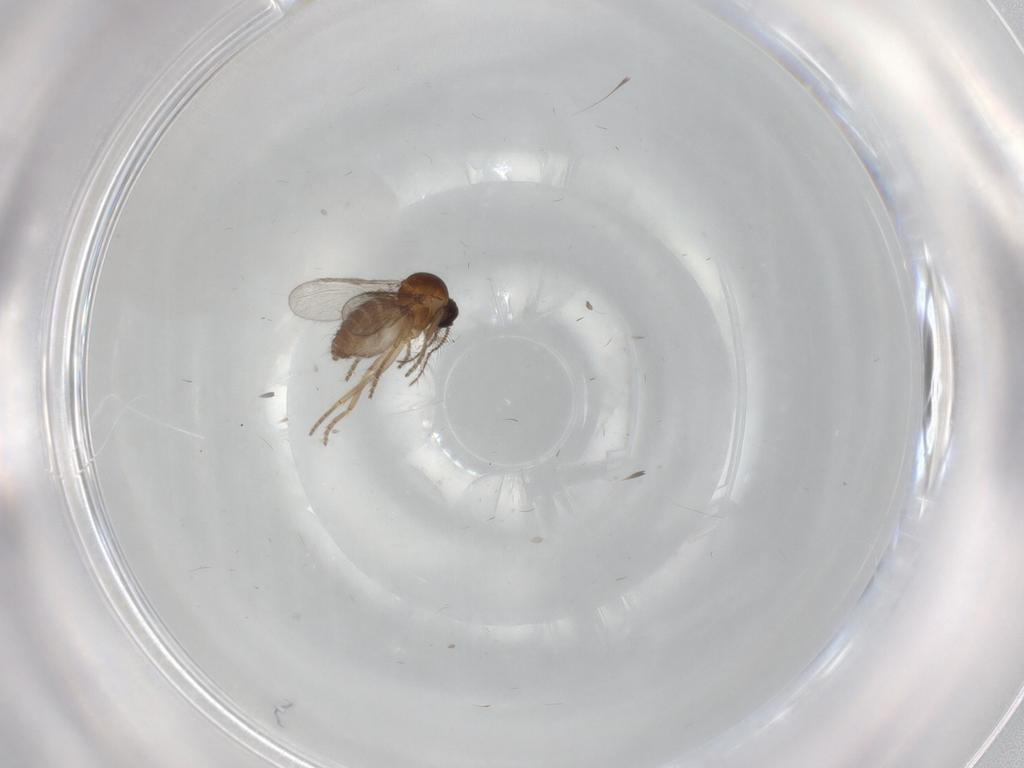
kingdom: Animalia
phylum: Arthropoda
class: Insecta
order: Diptera
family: Ceratopogonidae
